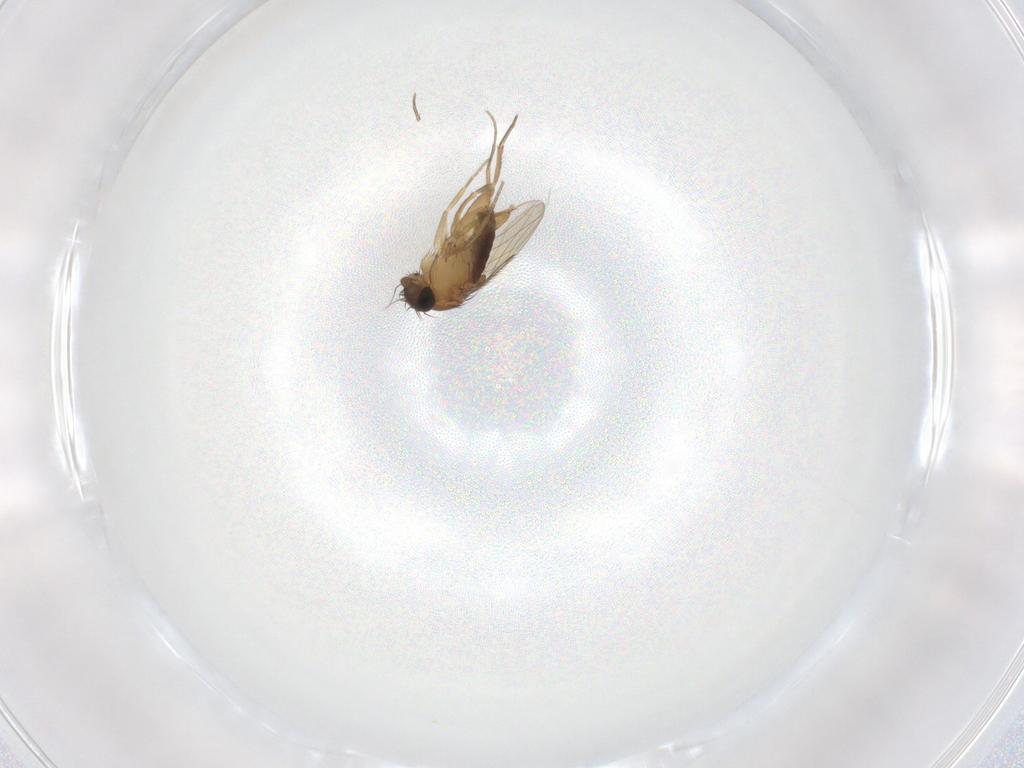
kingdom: Animalia
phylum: Arthropoda
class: Insecta
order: Diptera
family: Phoridae
